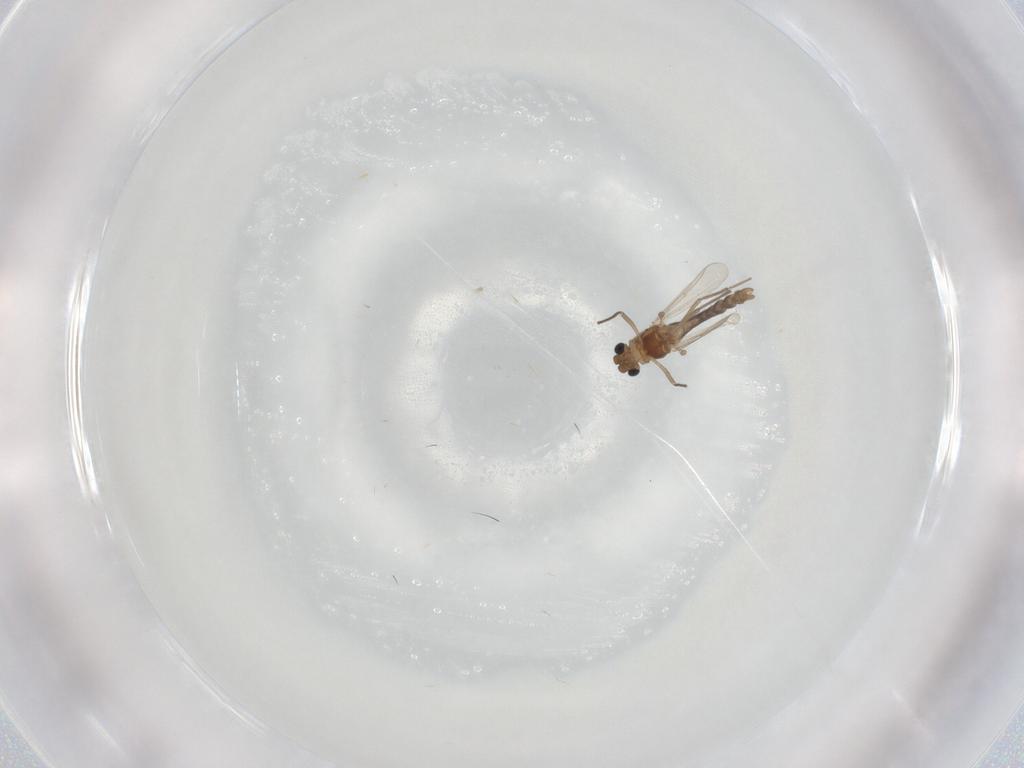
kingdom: Animalia
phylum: Arthropoda
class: Insecta
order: Diptera
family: Chironomidae
